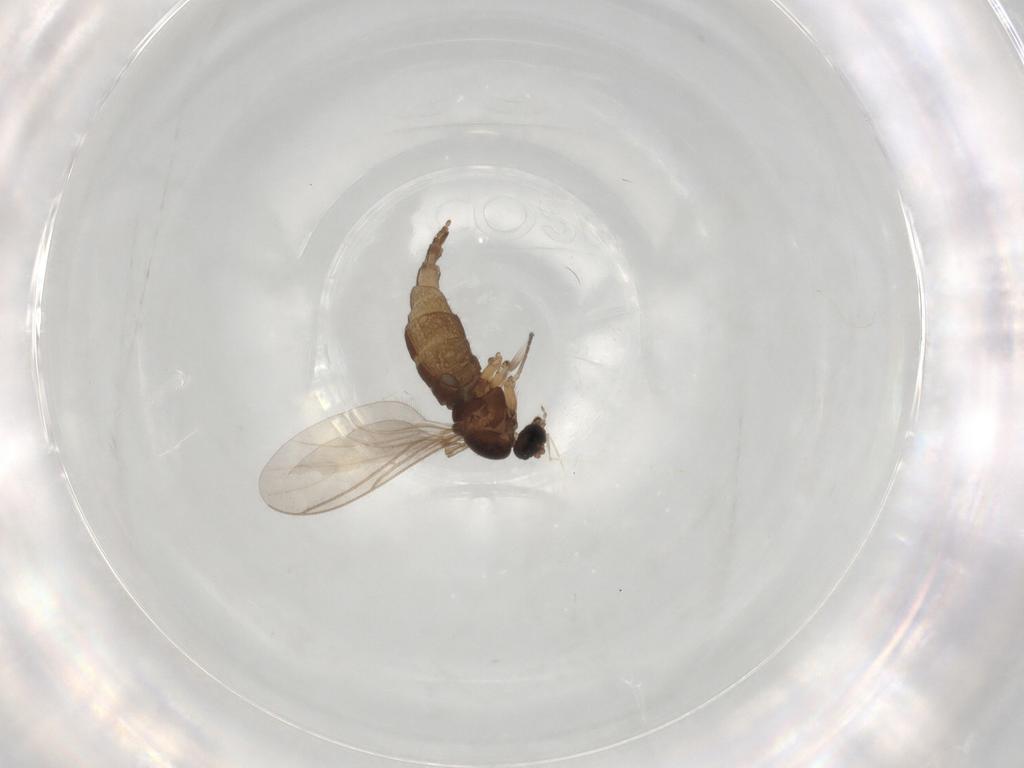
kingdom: Animalia
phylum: Arthropoda
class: Insecta
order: Diptera
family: Sciaridae
